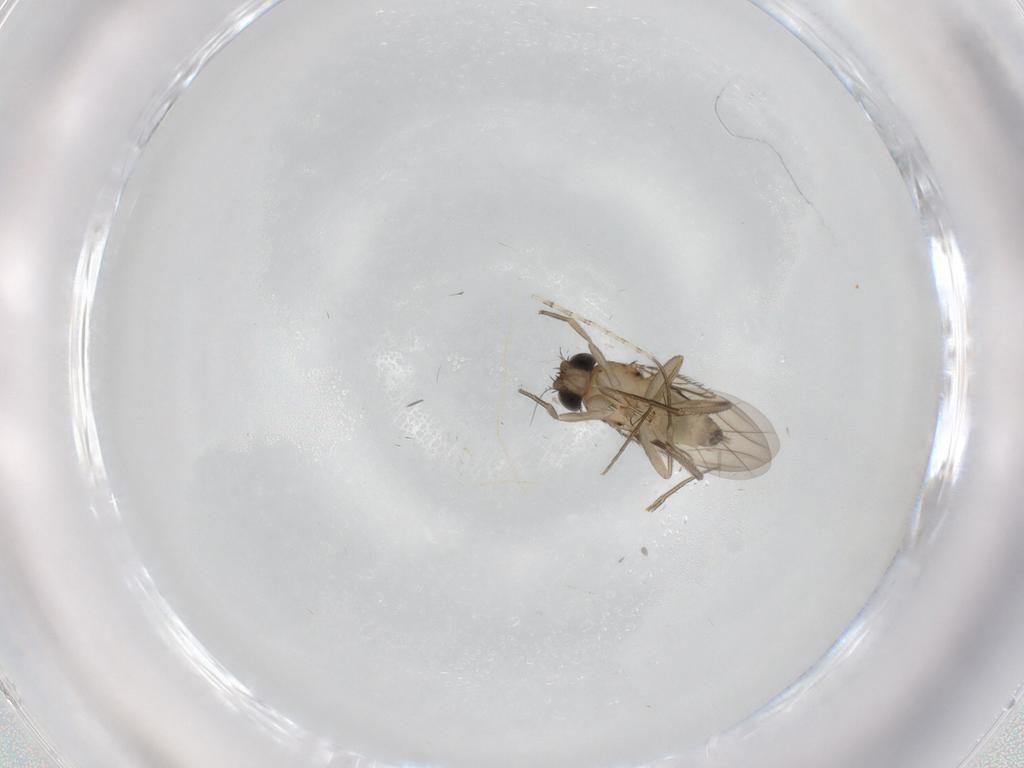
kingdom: Animalia
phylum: Arthropoda
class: Insecta
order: Diptera
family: Phoridae
